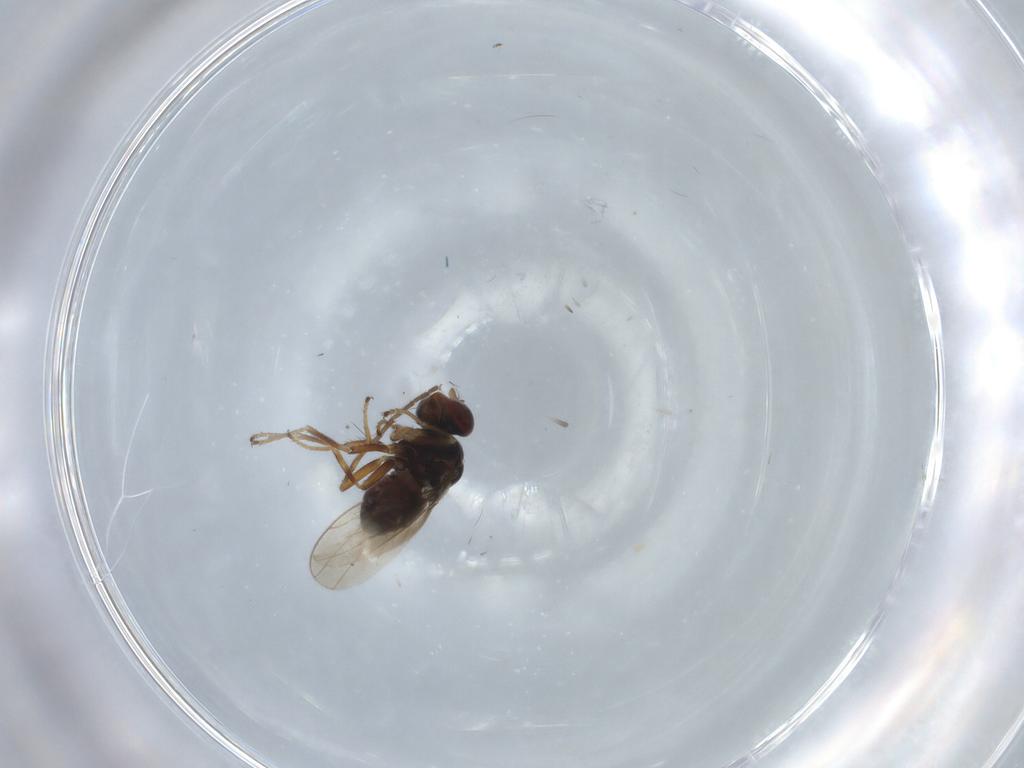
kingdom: Animalia
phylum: Arthropoda
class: Insecta
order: Diptera
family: Ephydridae
